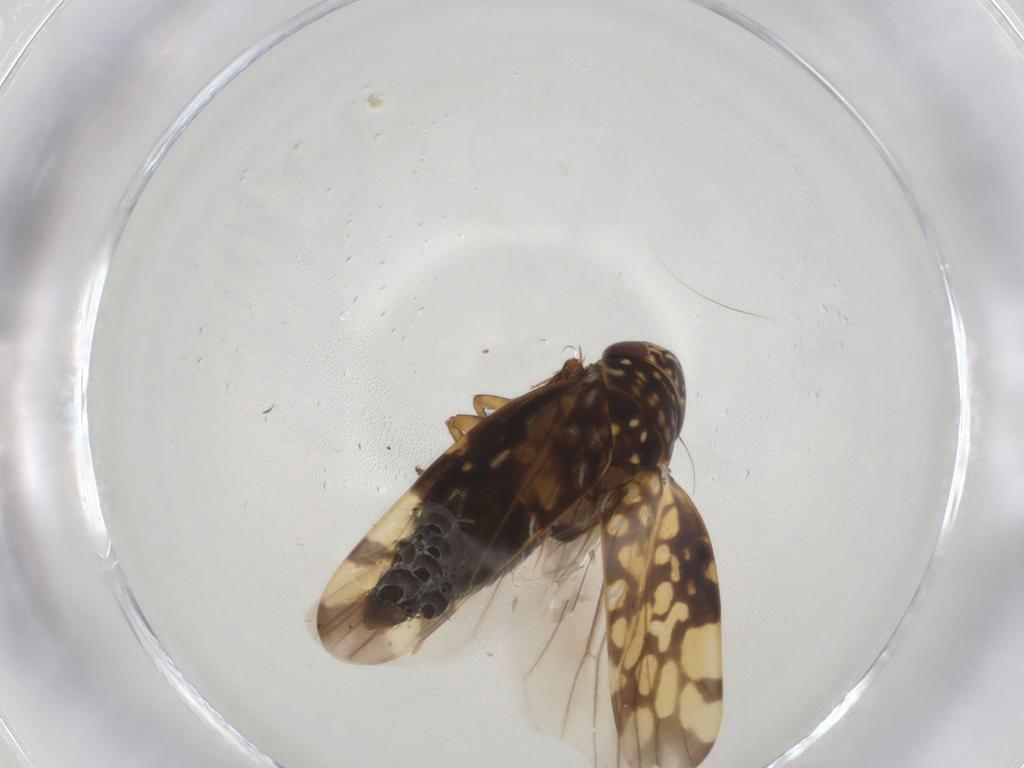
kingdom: Animalia
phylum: Arthropoda
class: Insecta
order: Hemiptera
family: Cicadellidae
